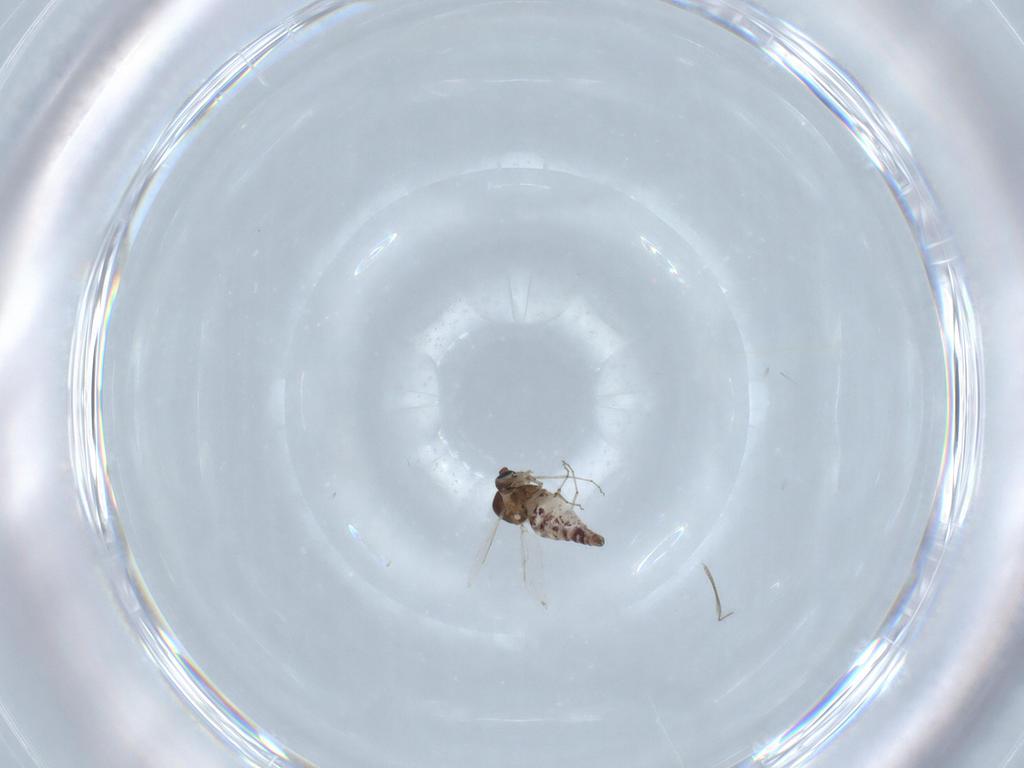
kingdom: Animalia
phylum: Arthropoda
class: Insecta
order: Diptera
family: Ceratopogonidae
